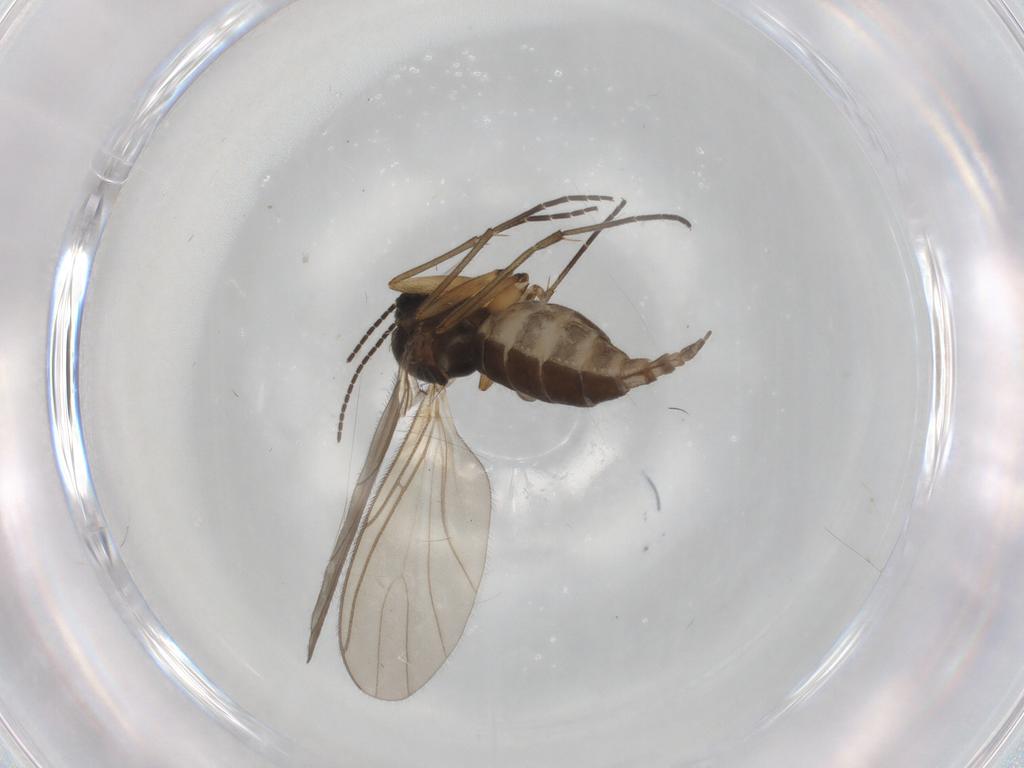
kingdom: Animalia
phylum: Arthropoda
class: Insecta
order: Diptera
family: Sciaridae
